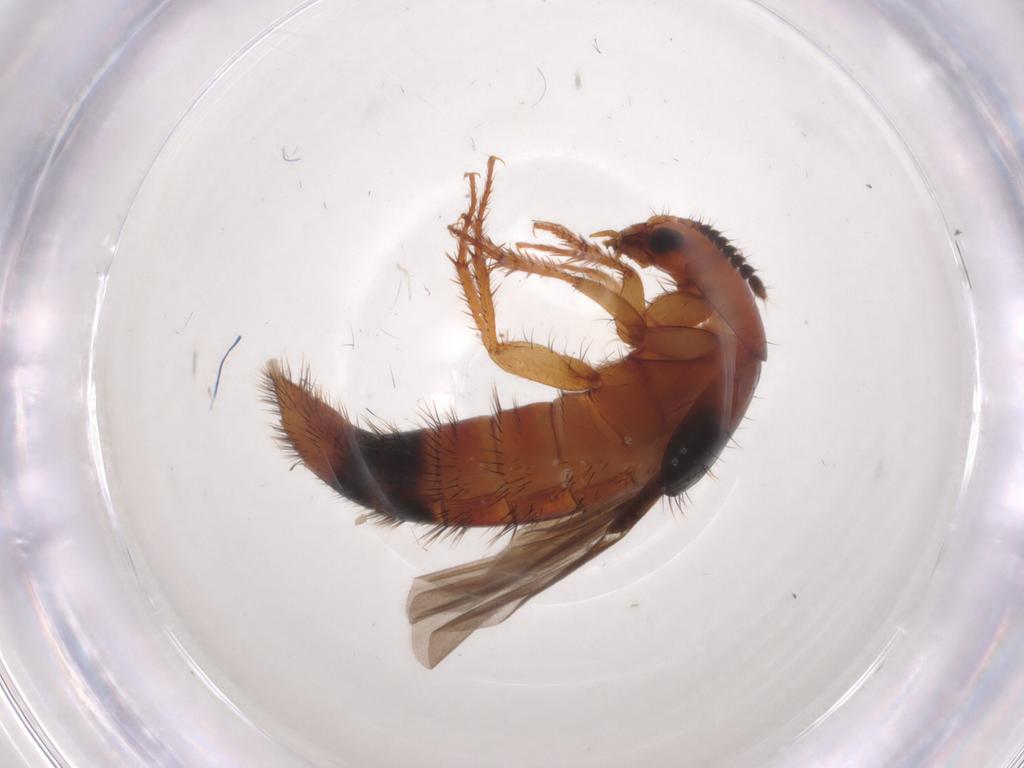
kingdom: Animalia
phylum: Arthropoda
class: Insecta
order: Coleoptera
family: Staphylinidae
